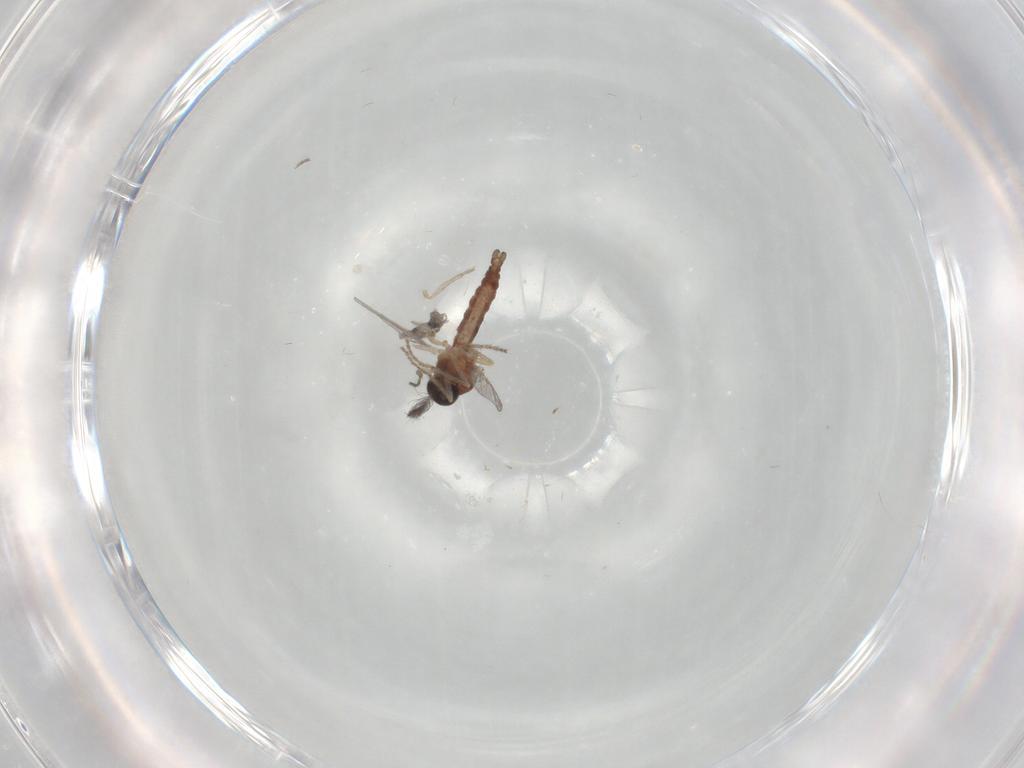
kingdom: Animalia
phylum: Arthropoda
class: Insecta
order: Diptera
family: Ceratopogonidae
